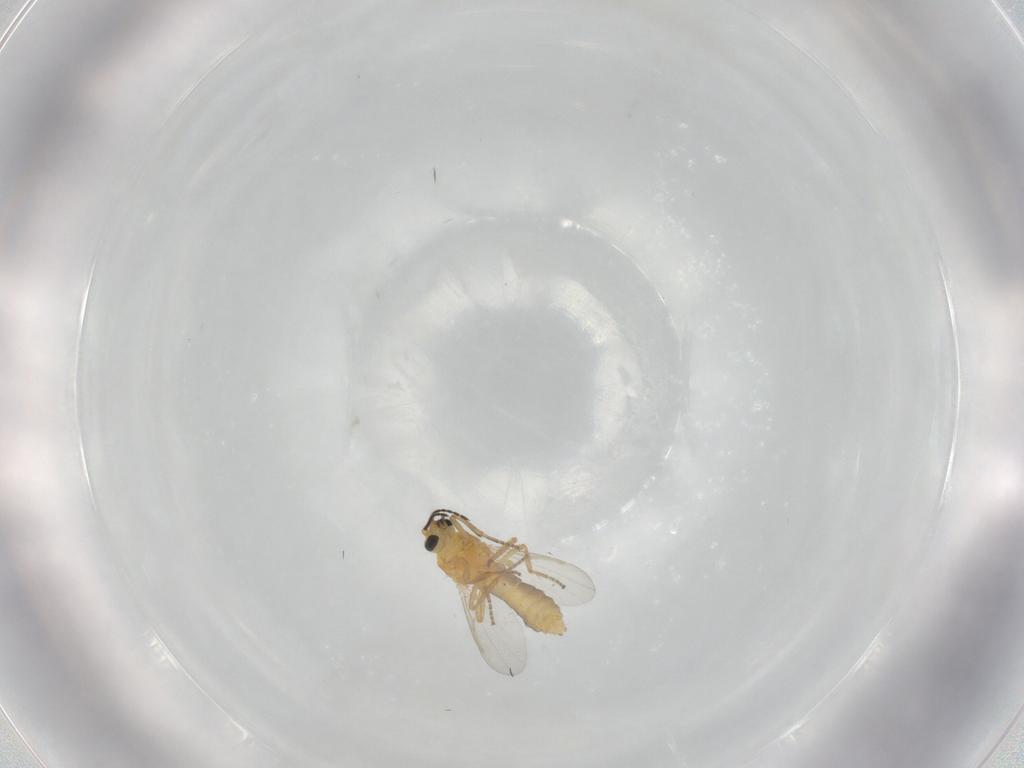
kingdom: Animalia
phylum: Arthropoda
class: Insecta
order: Diptera
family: Ceratopogonidae
